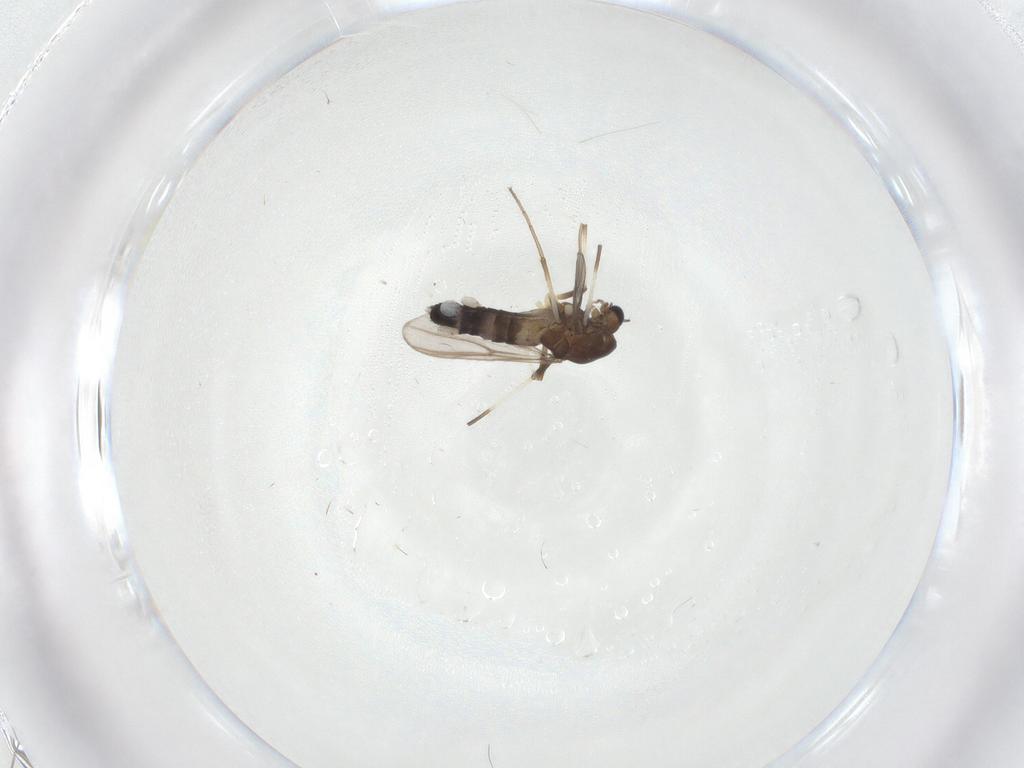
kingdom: Animalia
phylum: Arthropoda
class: Insecta
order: Diptera
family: Chironomidae
